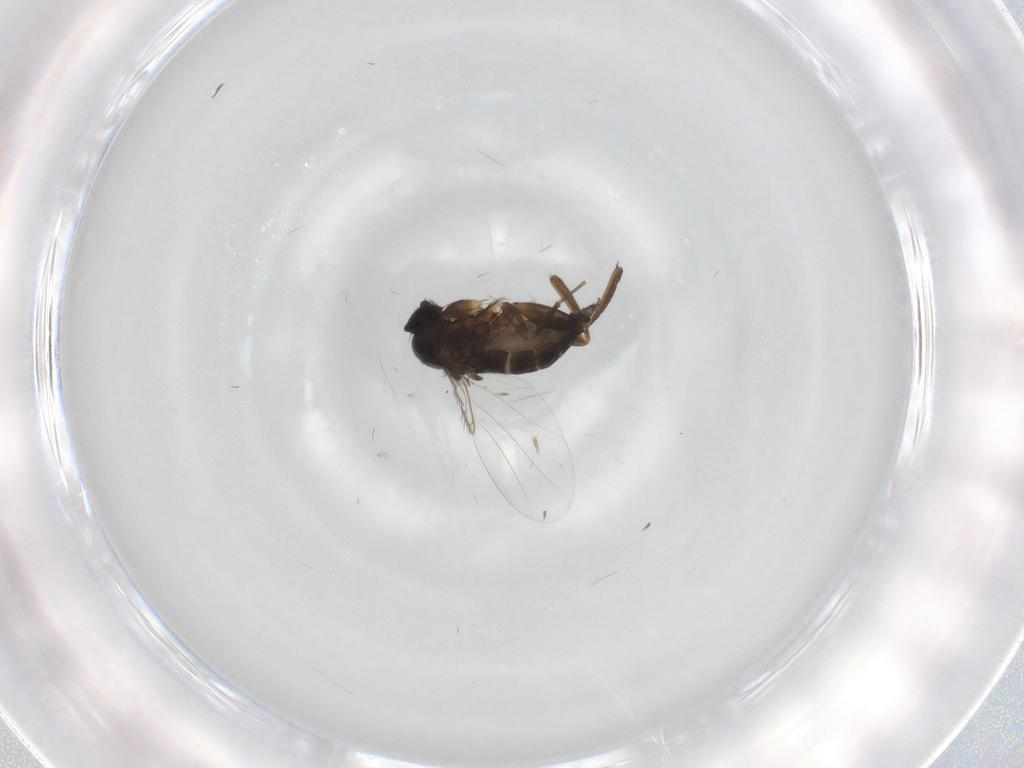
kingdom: Animalia
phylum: Arthropoda
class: Insecta
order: Diptera
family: Phoridae
